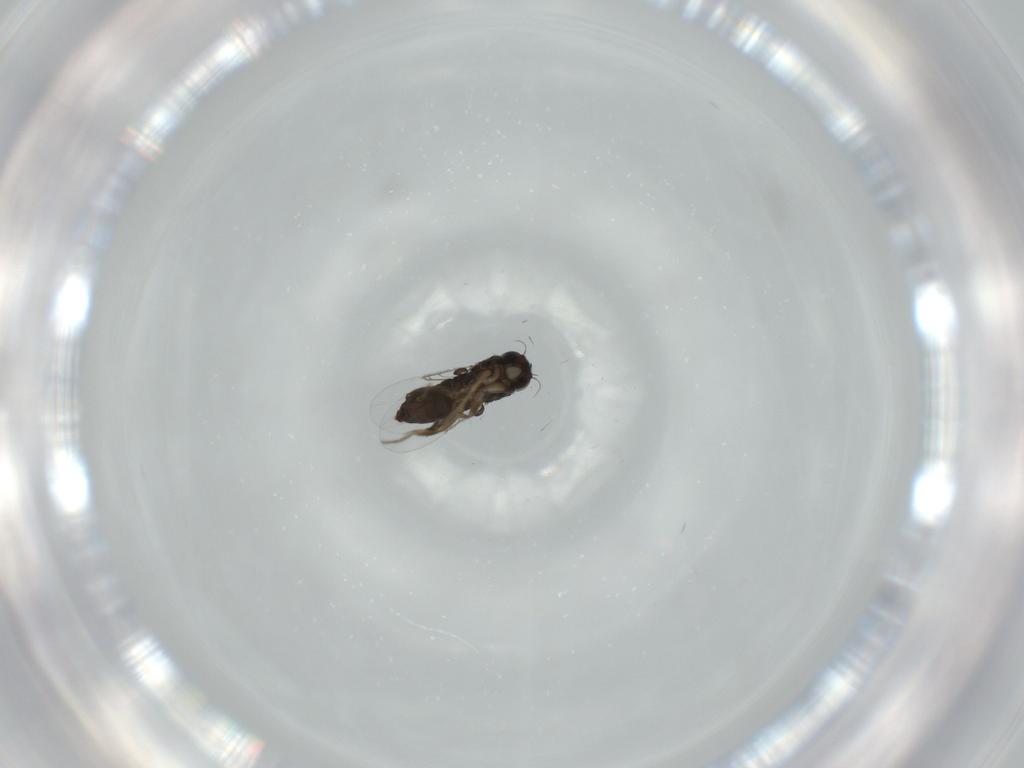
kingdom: Animalia
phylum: Arthropoda
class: Insecta
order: Diptera
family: Phoridae
